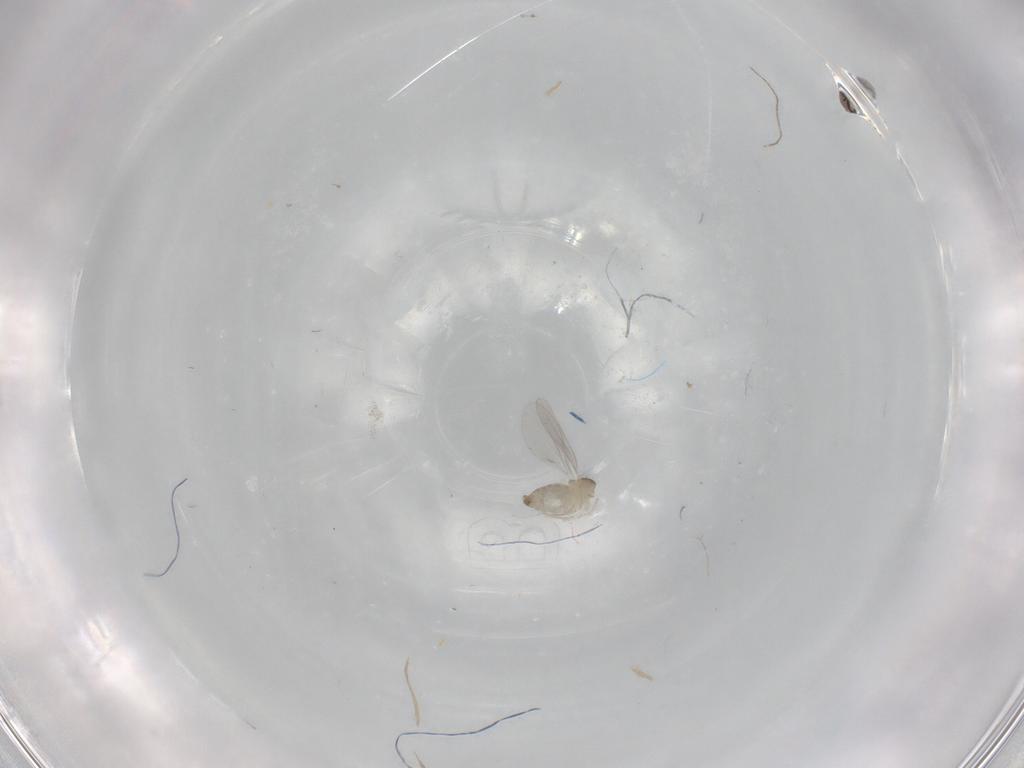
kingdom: Animalia
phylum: Arthropoda
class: Insecta
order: Diptera
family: Cecidomyiidae
